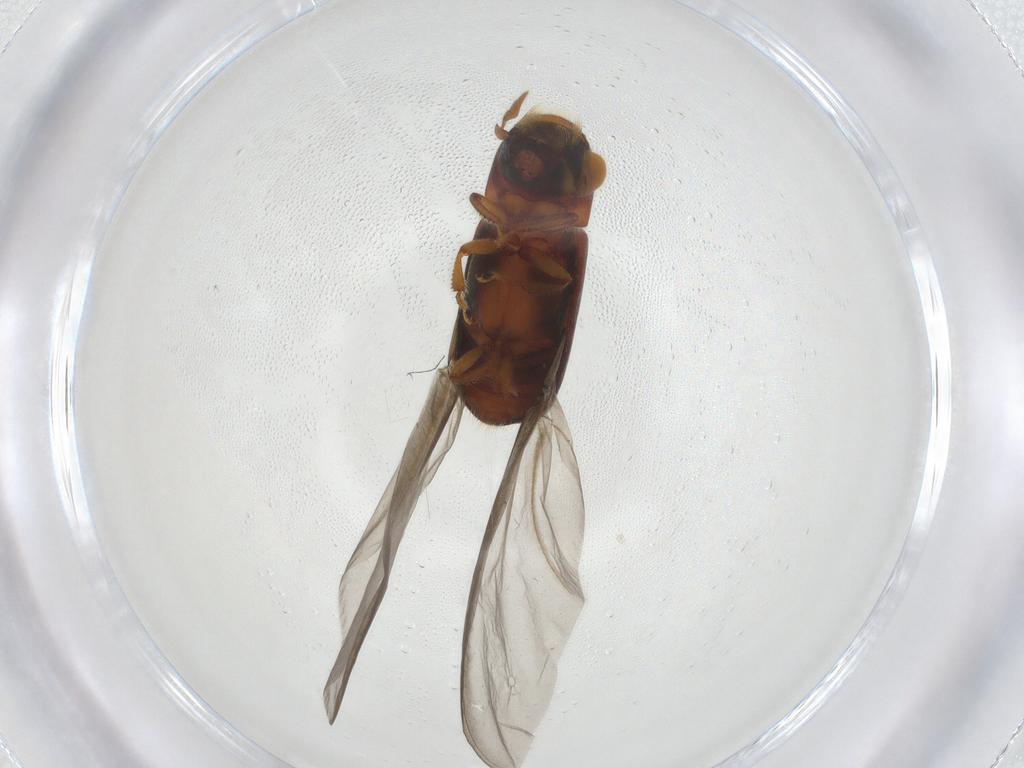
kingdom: Animalia
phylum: Arthropoda
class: Insecta
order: Coleoptera
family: Curculionidae
